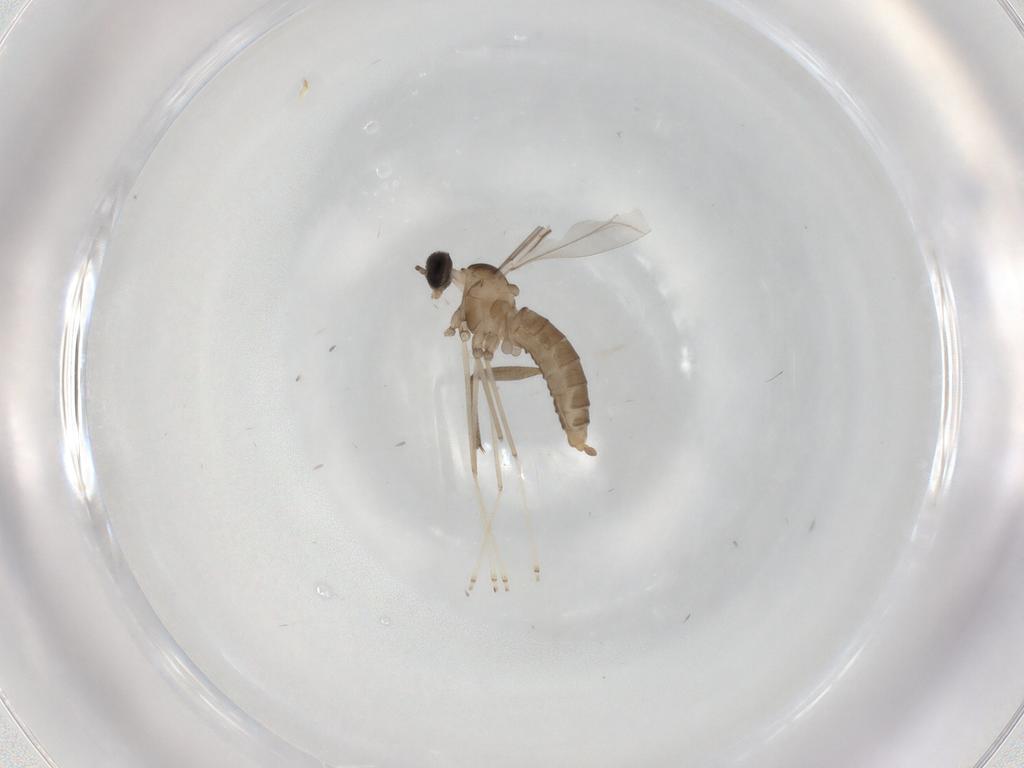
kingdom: Animalia
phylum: Arthropoda
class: Insecta
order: Diptera
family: Cecidomyiidae
